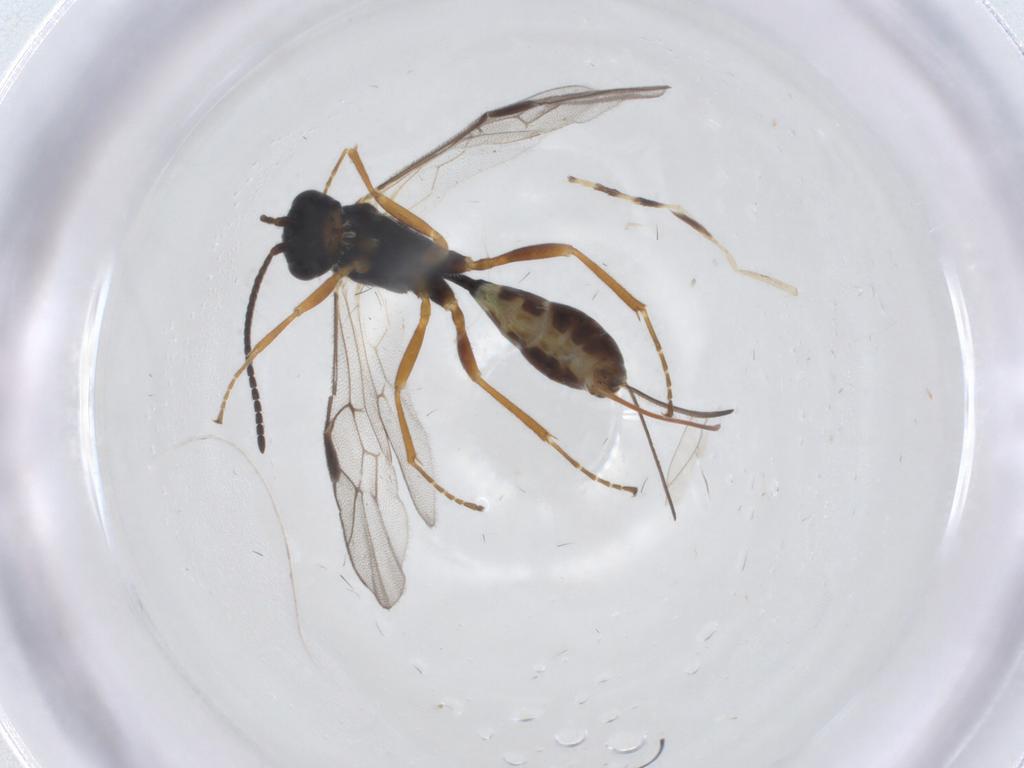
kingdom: Animalia
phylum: Arthropoda
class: Insecta
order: Hymenoptera
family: Ichneumonidae
